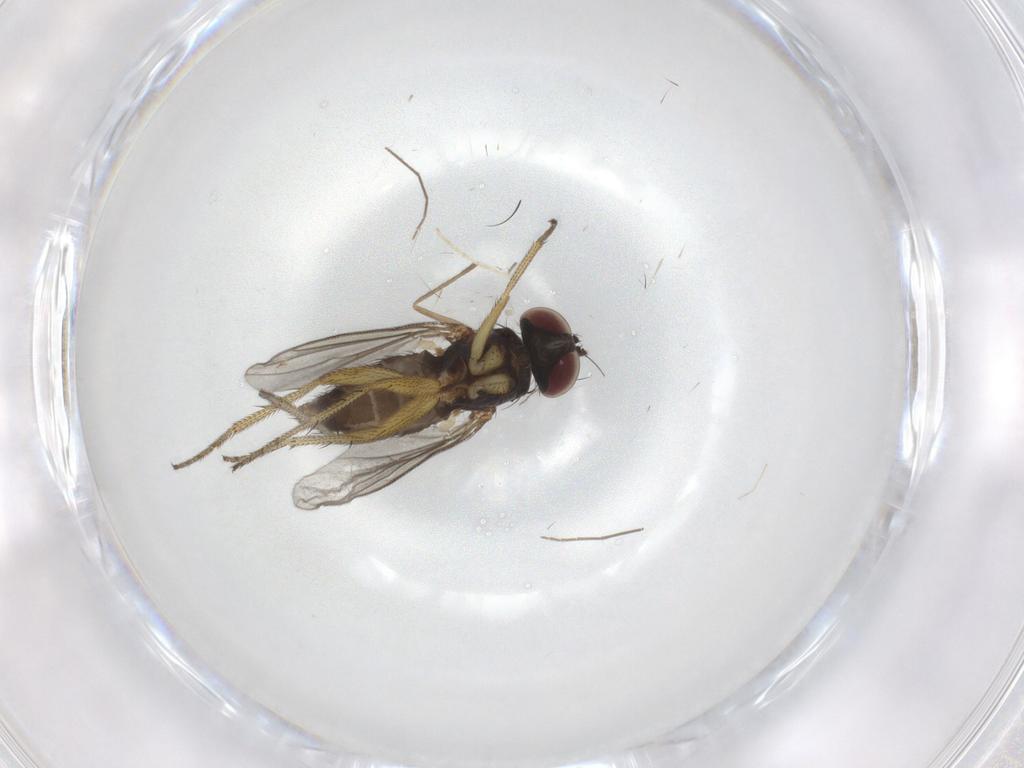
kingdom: Animalia
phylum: Arthropoda
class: Insecta
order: Diptera
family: Dolichopodidae
